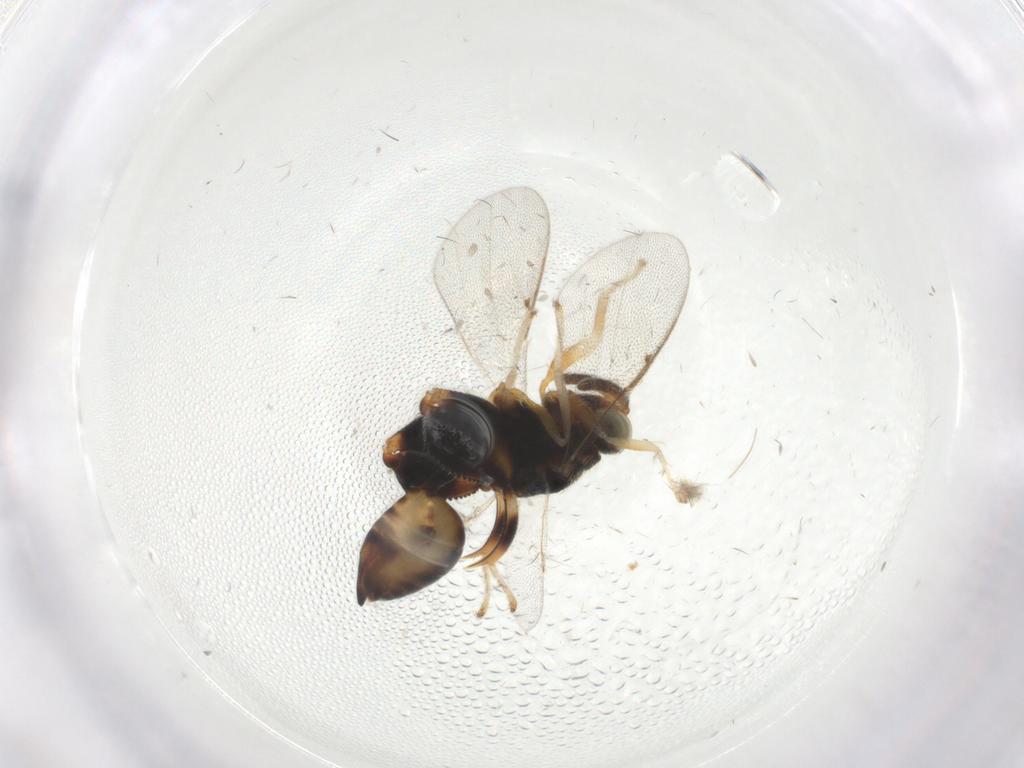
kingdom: Animalia
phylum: Arthropoda
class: Insecta
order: Hymenoptera
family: Chalcididae
